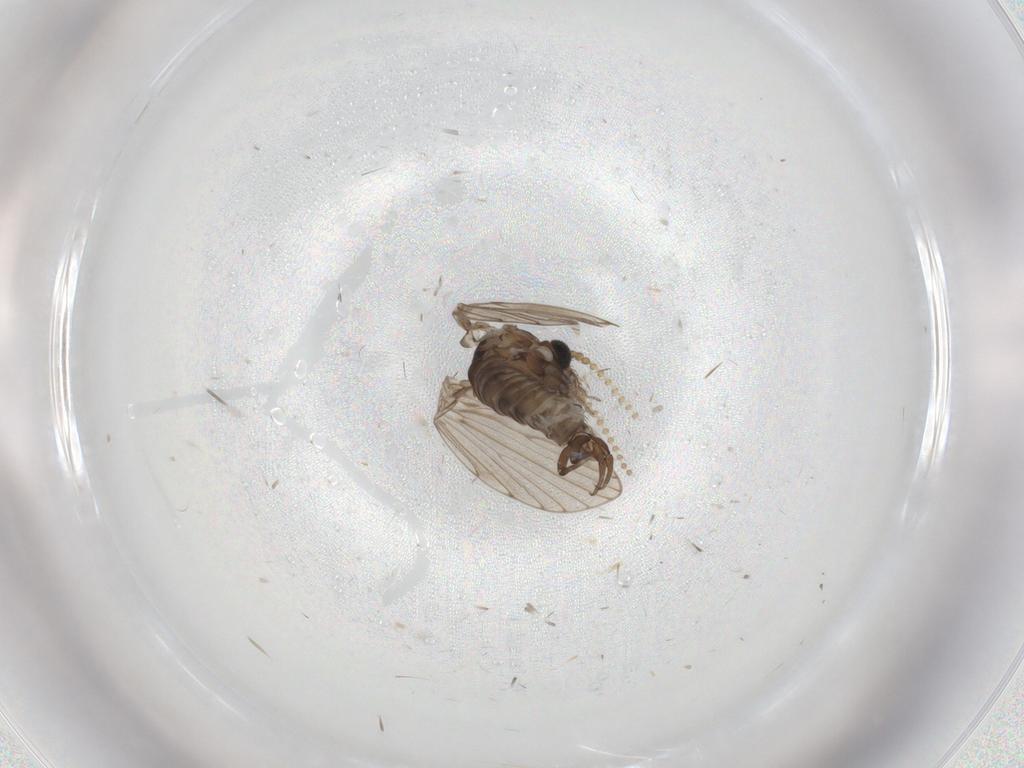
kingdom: Animalia
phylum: Arthropoda
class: Insecta
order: Diptera
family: Psychodidae
